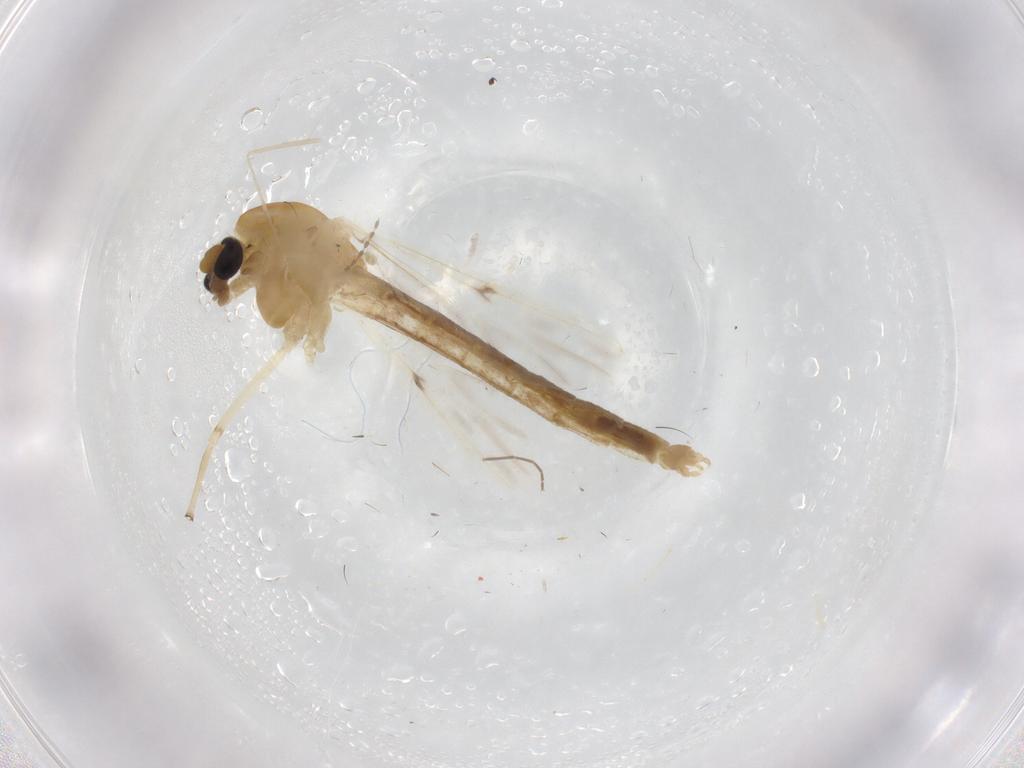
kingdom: Animalia
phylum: Arthropoda
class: Insecta
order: Diptera
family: Chironomidae
